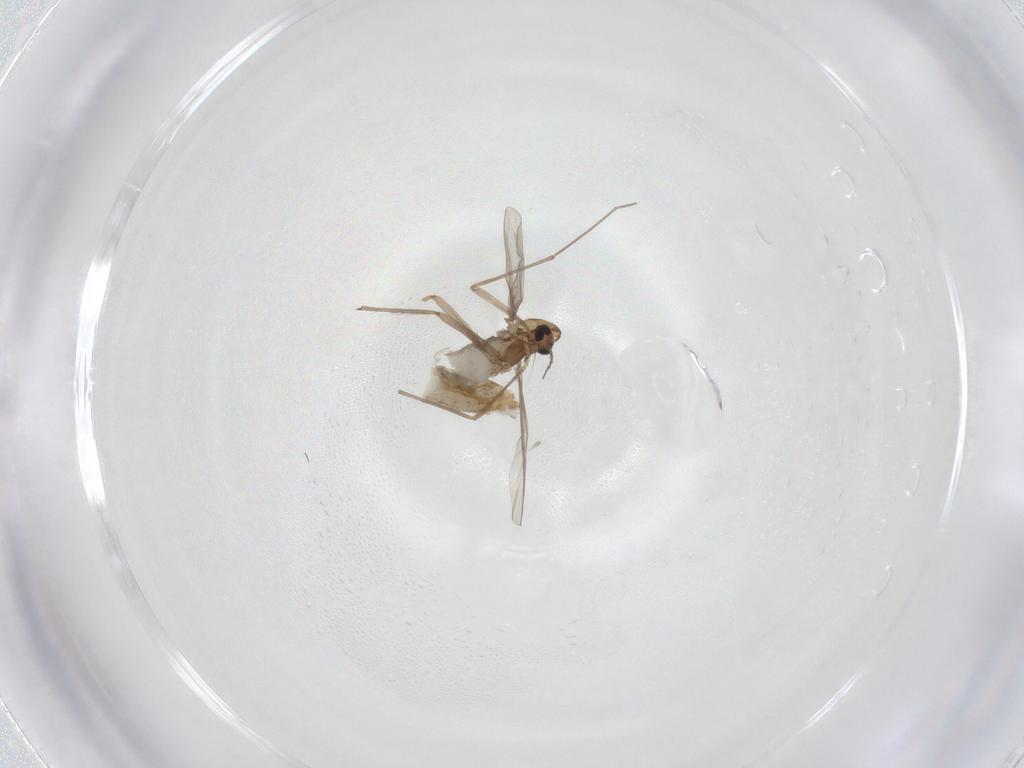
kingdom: Animalia
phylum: Arthropoda
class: Insecta
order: Diptera
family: Chironomidae
